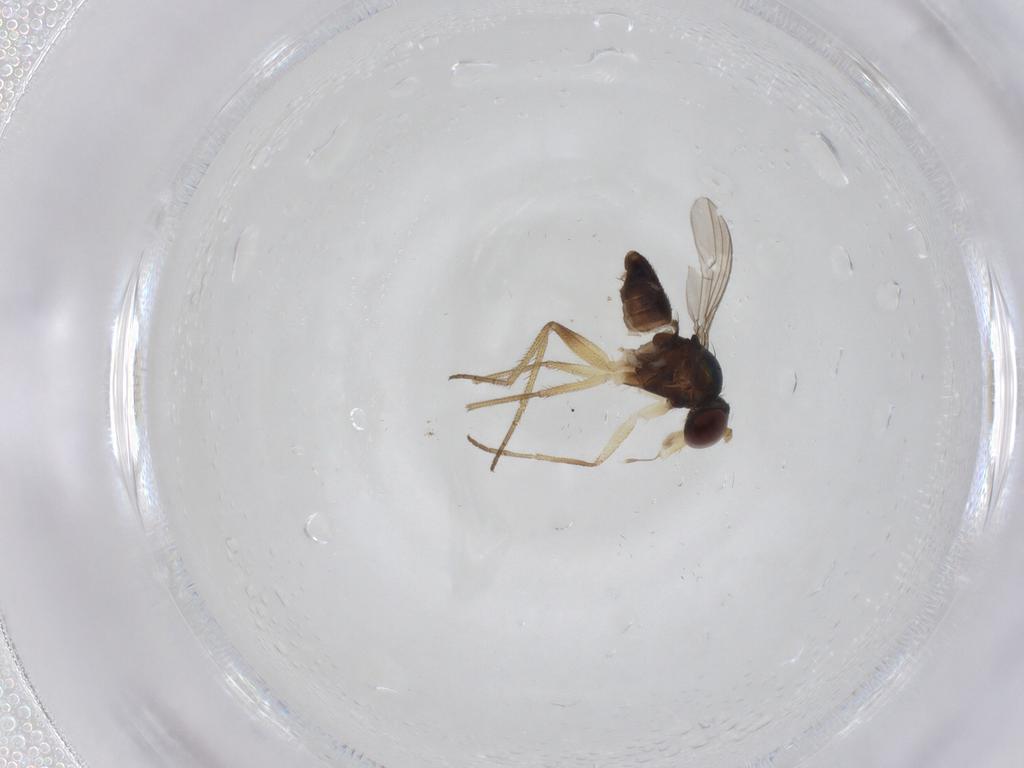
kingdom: Animalia
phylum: Arthropoda
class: Insecta
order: Diptera
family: Dolichopodidae
